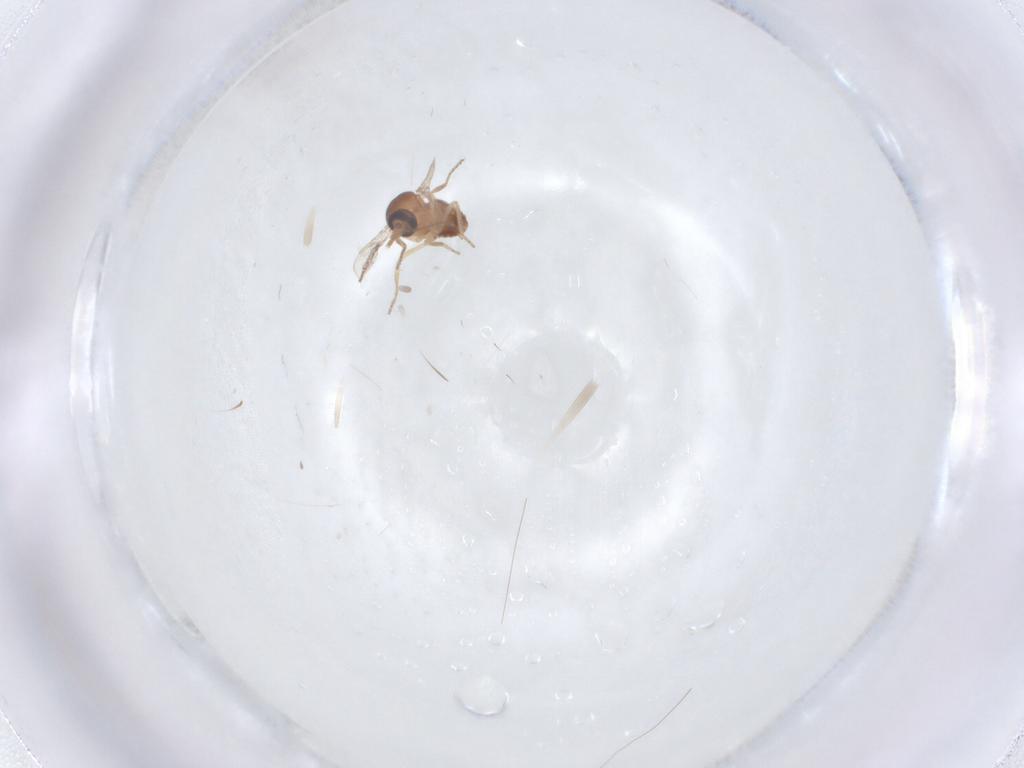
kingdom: Animalia
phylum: Arthropoda
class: Insecta
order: Diptera
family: Ceratopogonidae
